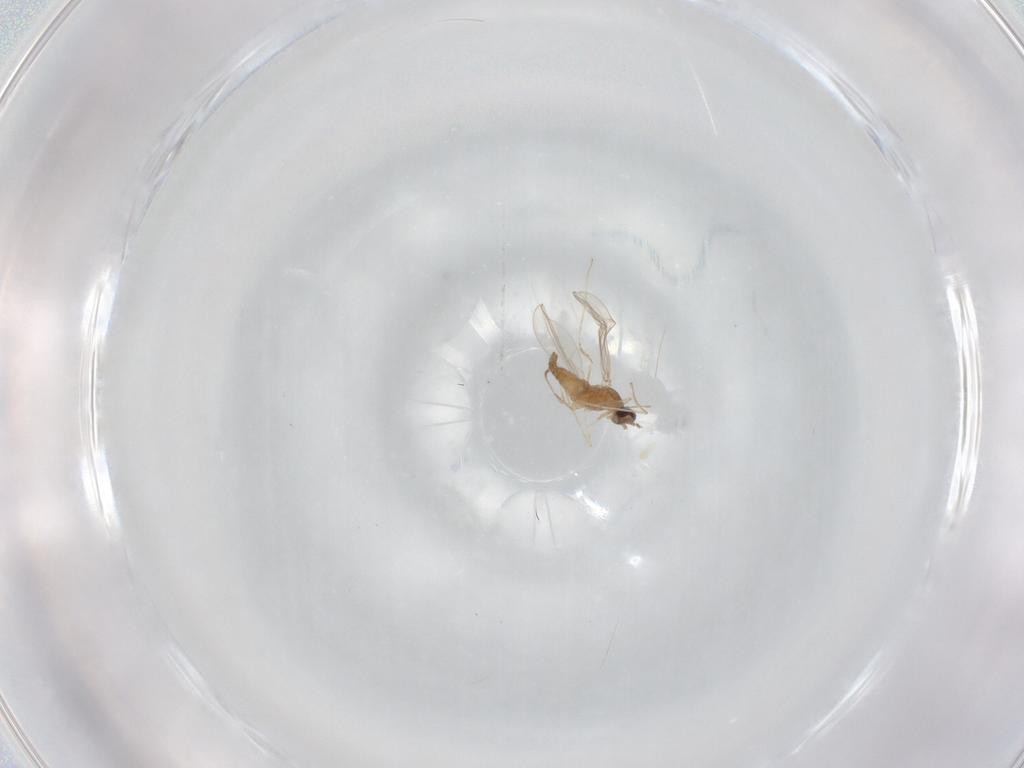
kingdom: Animalia
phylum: Arthropoda
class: Insecta
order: Diptera
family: Cecidomyiidae
